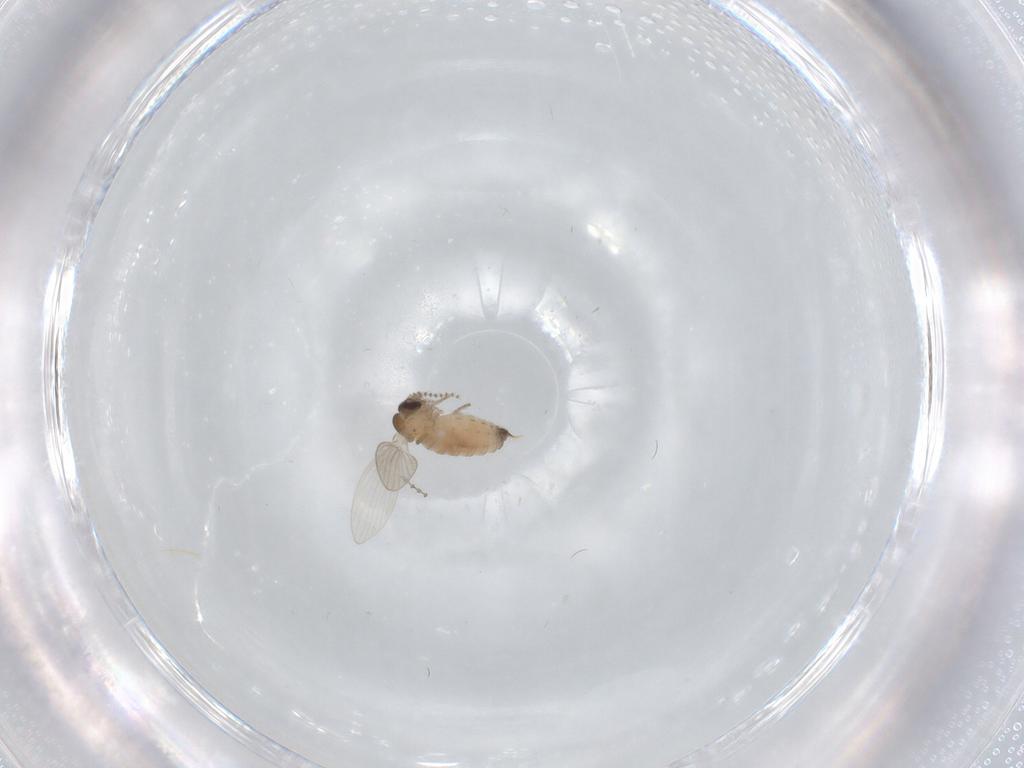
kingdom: Animalia
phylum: Arthropoda
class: Insecta
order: Diptera
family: Psychodidae
